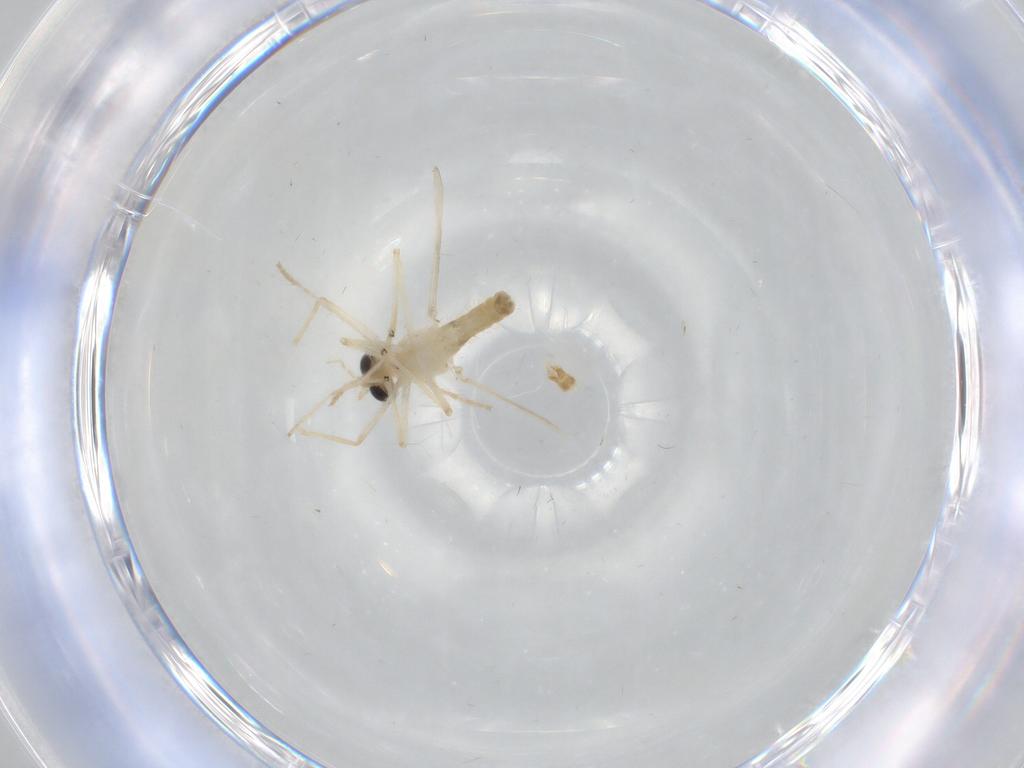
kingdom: Animalia
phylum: Arthropoda
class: Insecta
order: Diptera
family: Chironomidae
